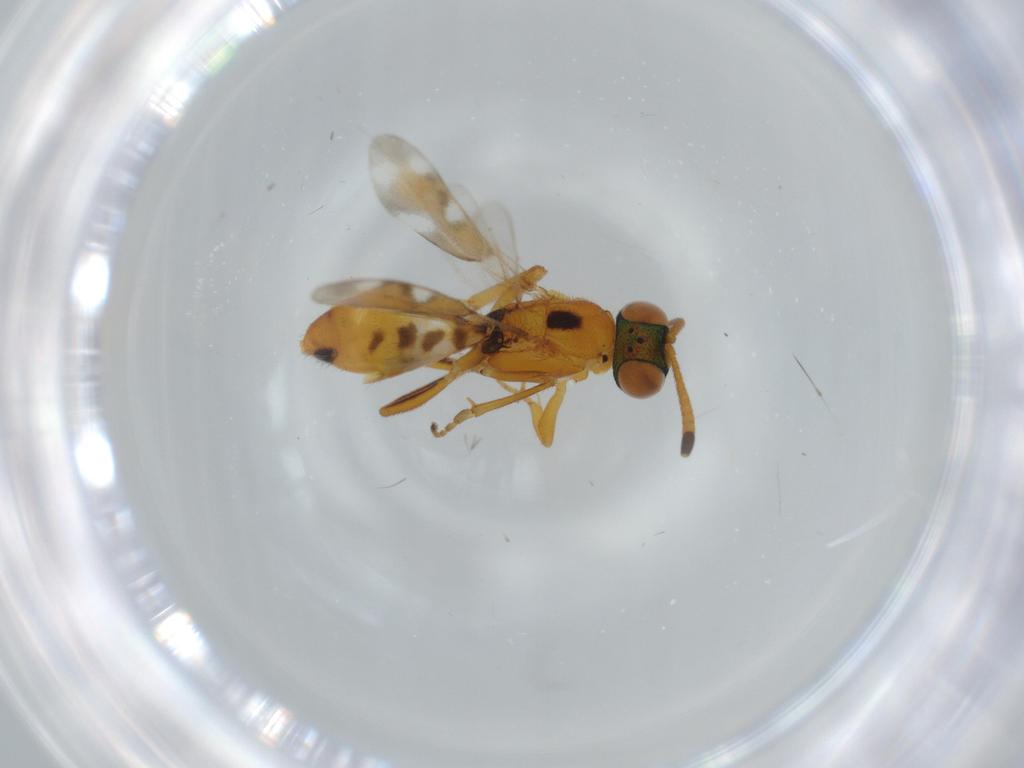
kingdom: Animalia
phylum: Arthropoda
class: Insecta
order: Hymenoptera
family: Eupelmidae
